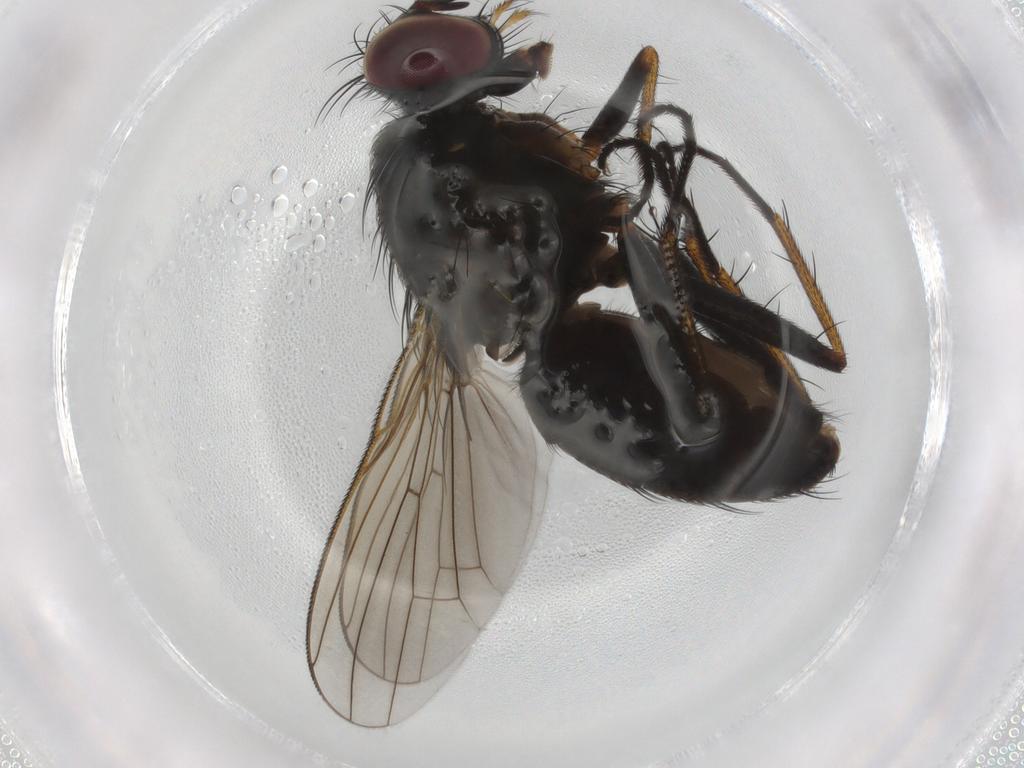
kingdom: Animalia
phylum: Arthropoda
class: Insecta
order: Diptera
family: Muscidae
